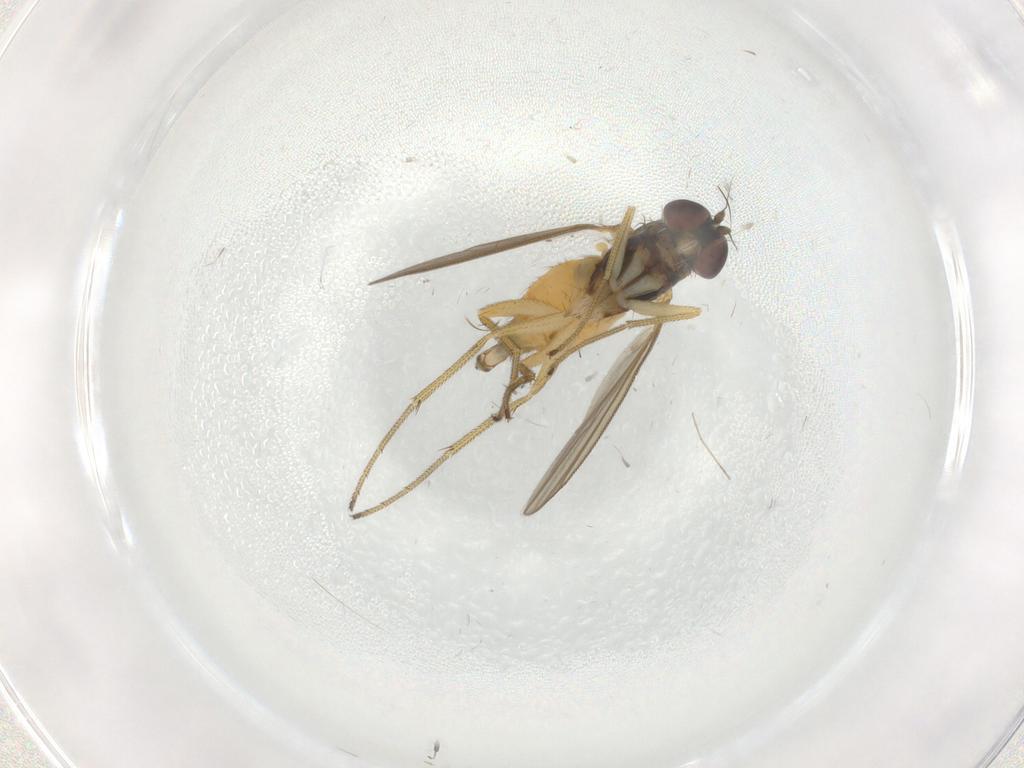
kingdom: Animalia
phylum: Arthropoda
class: Insecta
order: Diptera
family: Dolichopodidae
